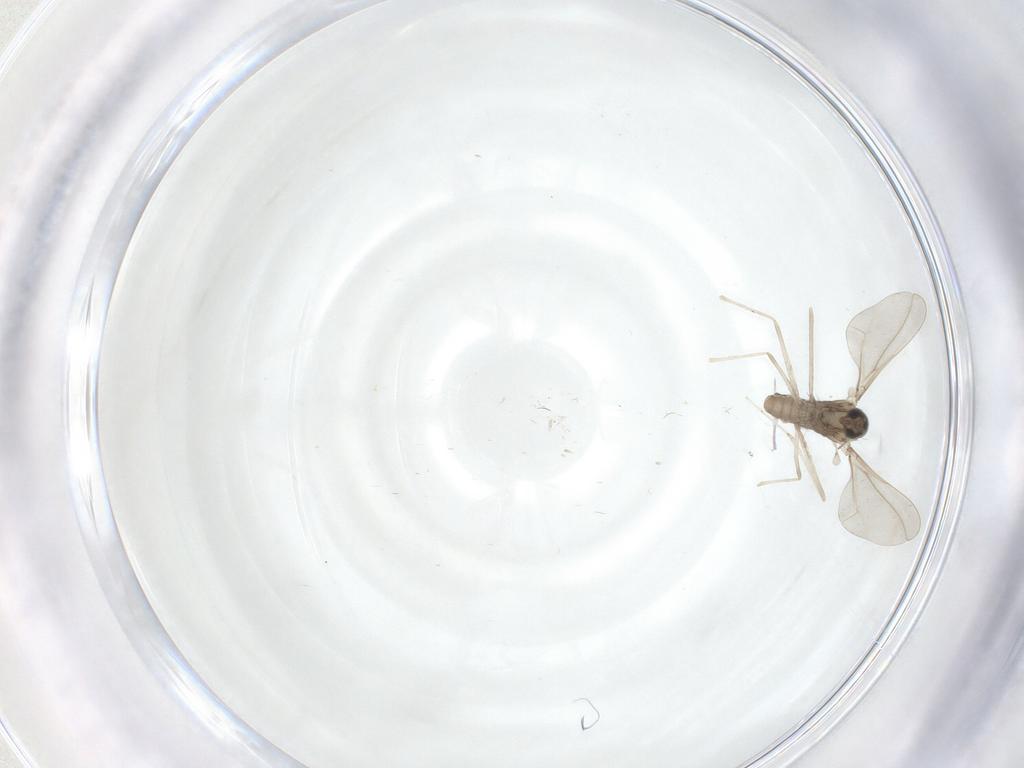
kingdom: Animalia
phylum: Arthropoda
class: Insecta
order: Diptera
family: Cecidomyiidae
